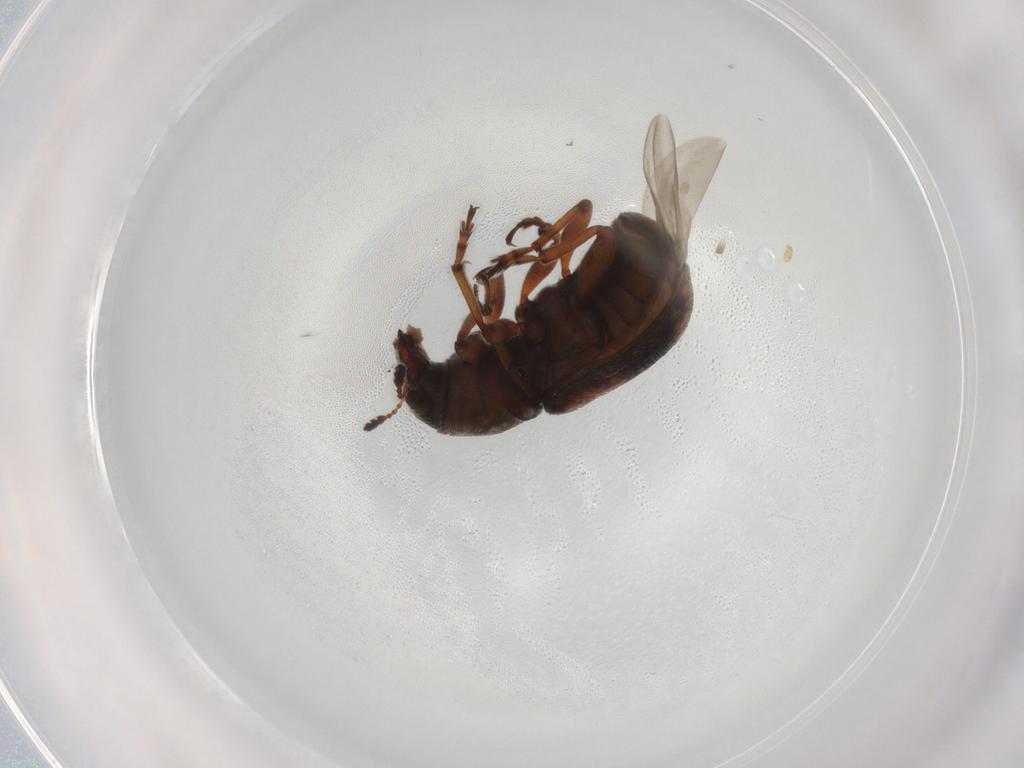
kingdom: Animalia
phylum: Arthropoda
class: Insecta
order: Coleoptera
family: Anthribidae
